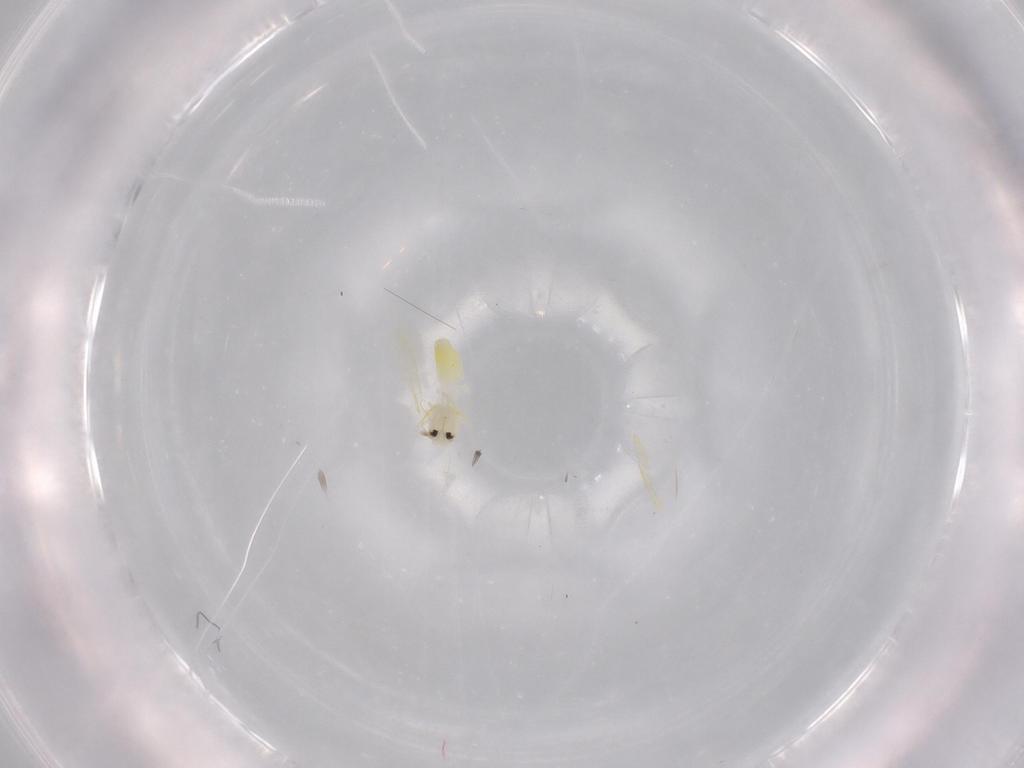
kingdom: Animalia
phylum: Arthropoda
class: Insecta
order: Hemiptera
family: Aleyrodidae
